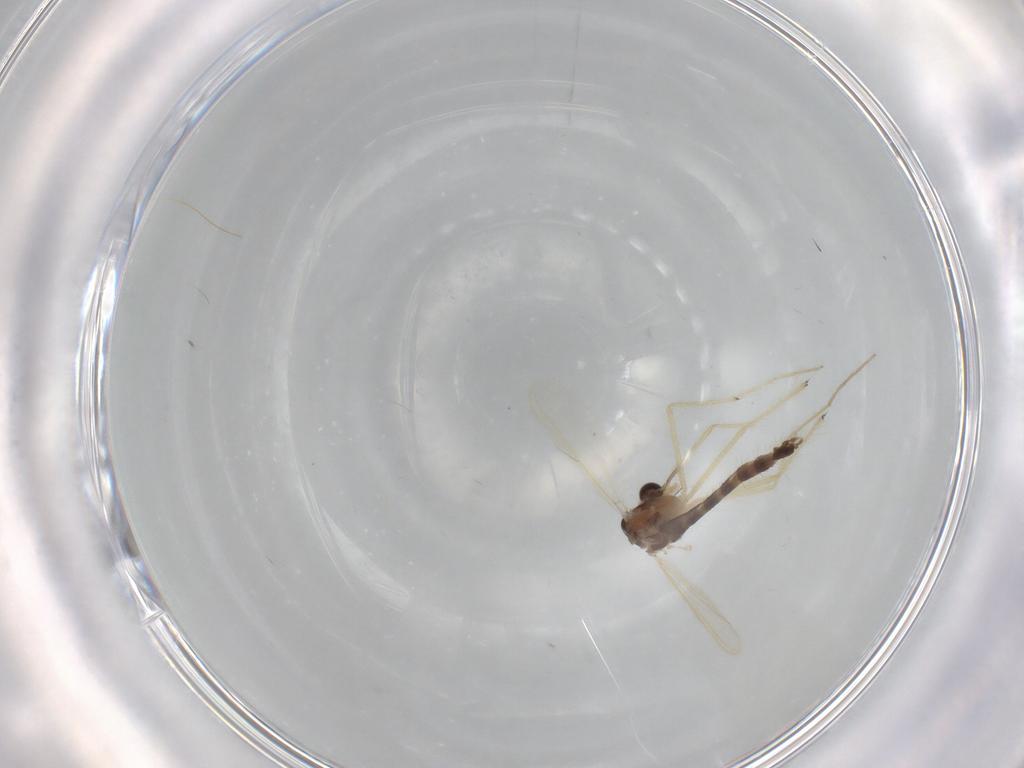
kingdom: Animalia
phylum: Arthropoda
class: Insecta
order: Diptera
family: Chironomidae
